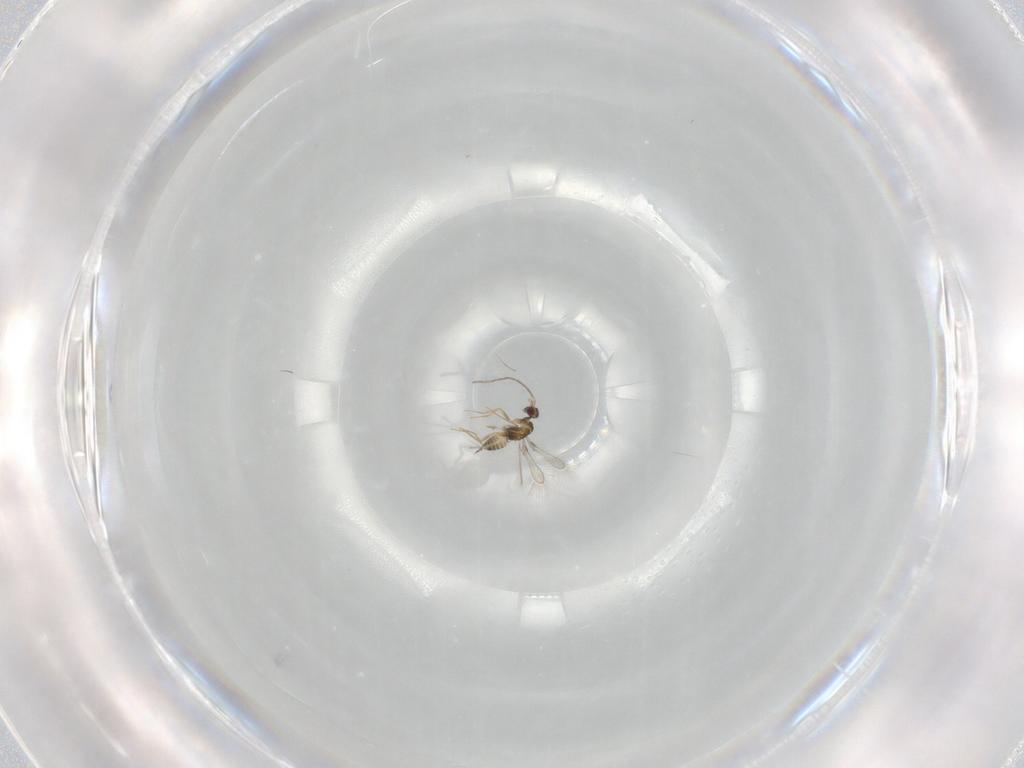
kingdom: Animalia
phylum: Arthropoda
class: Insecta
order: Hymenoptera
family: Mymaridae
